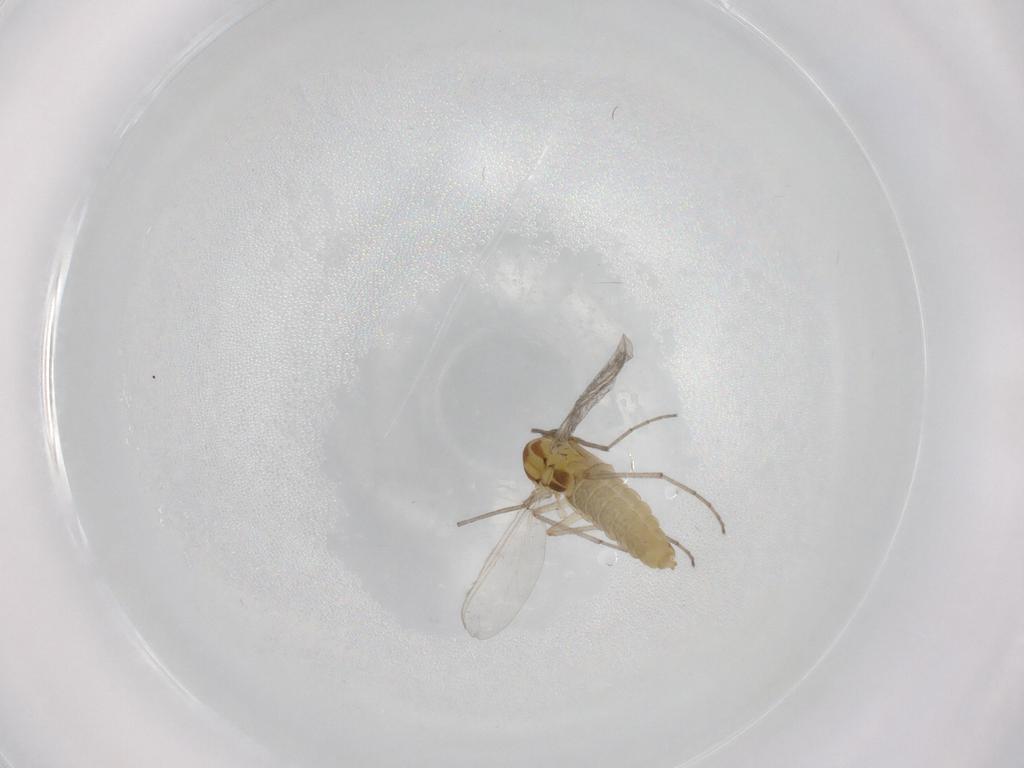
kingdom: Animalia
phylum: Arthropoda
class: Insecta
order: Diptera
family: Chironomidae
